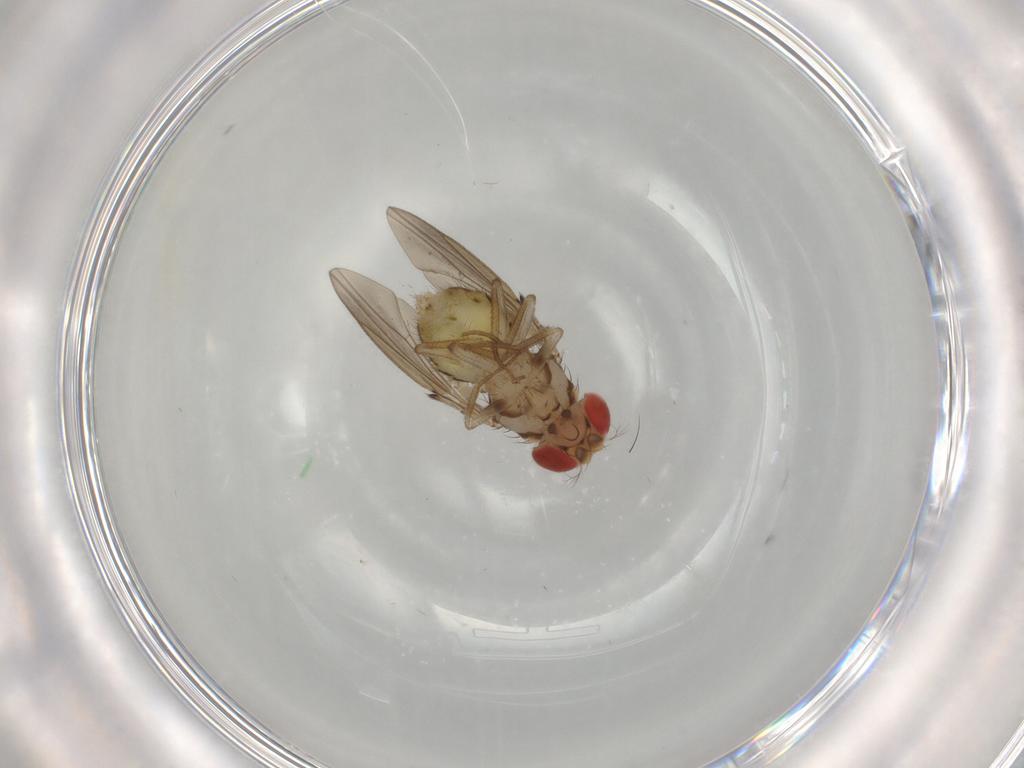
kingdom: Animalia
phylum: Arthropoda
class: Insecta
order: Diptera
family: Drosophilidae
